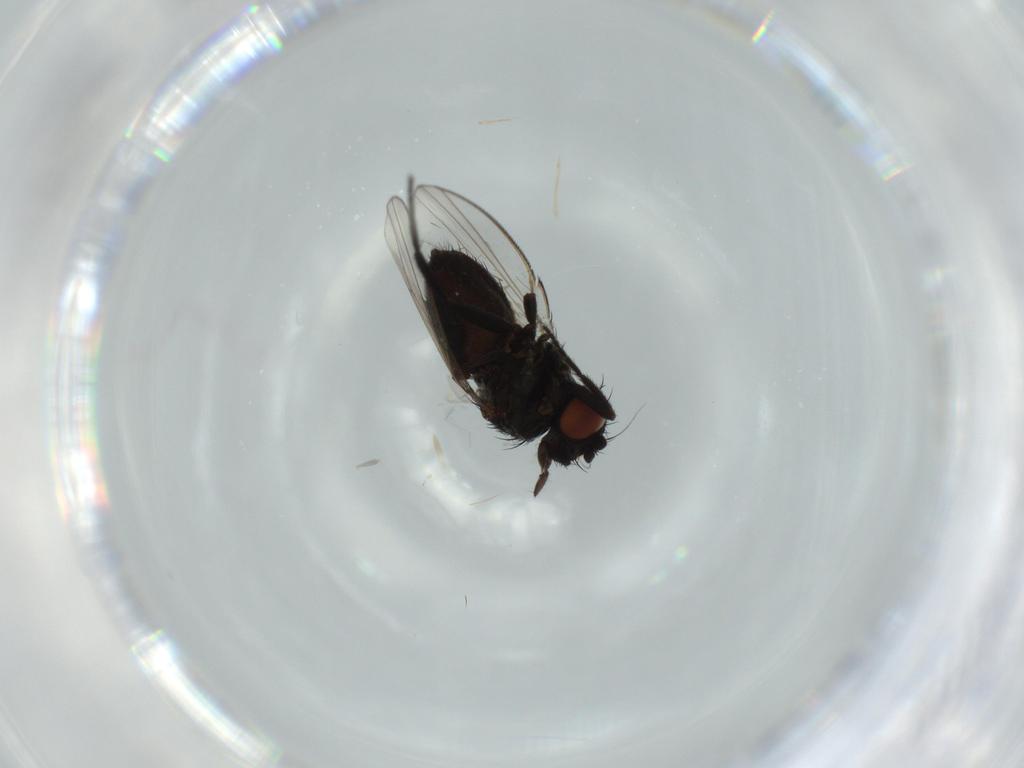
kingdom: Animalia
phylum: Arthropoda
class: Insecta
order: Diptera
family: Milichiidae
